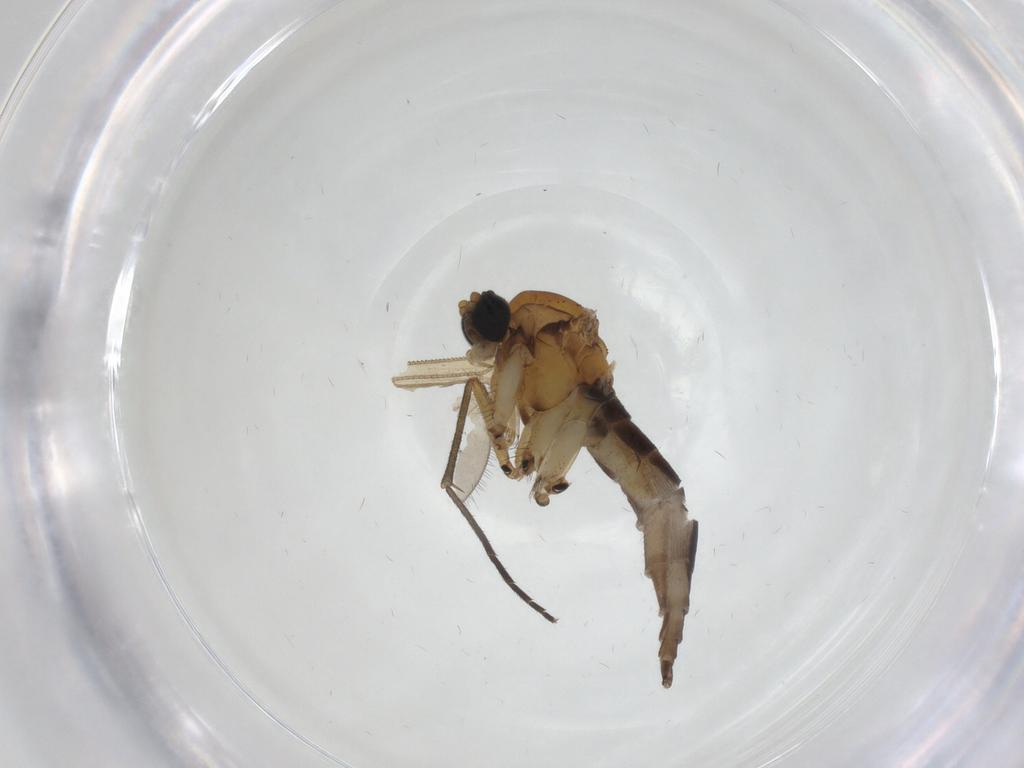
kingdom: Animalia
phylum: Arthropoda
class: Insecta
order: Diptera
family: Sciaridae
